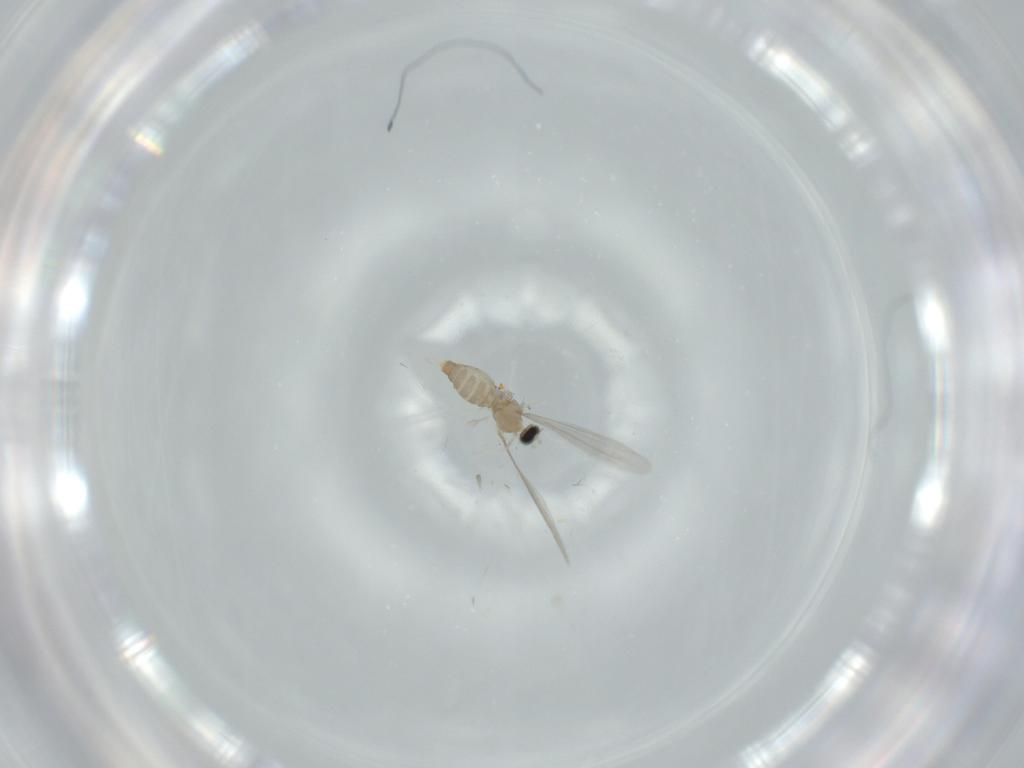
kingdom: Animalia
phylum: Arthropoda
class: Insecta
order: Diptera
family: Cecidomyiidae
